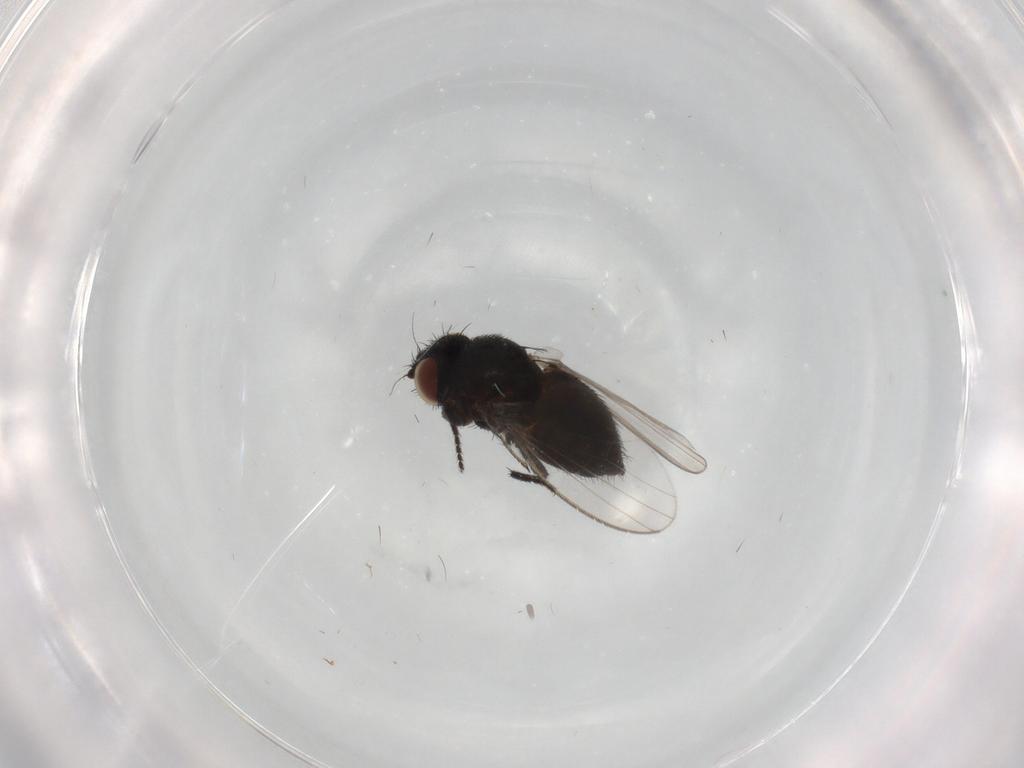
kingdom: Animalia
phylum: Arthropoda
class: Insecta
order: Diptera
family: Milichiidae
